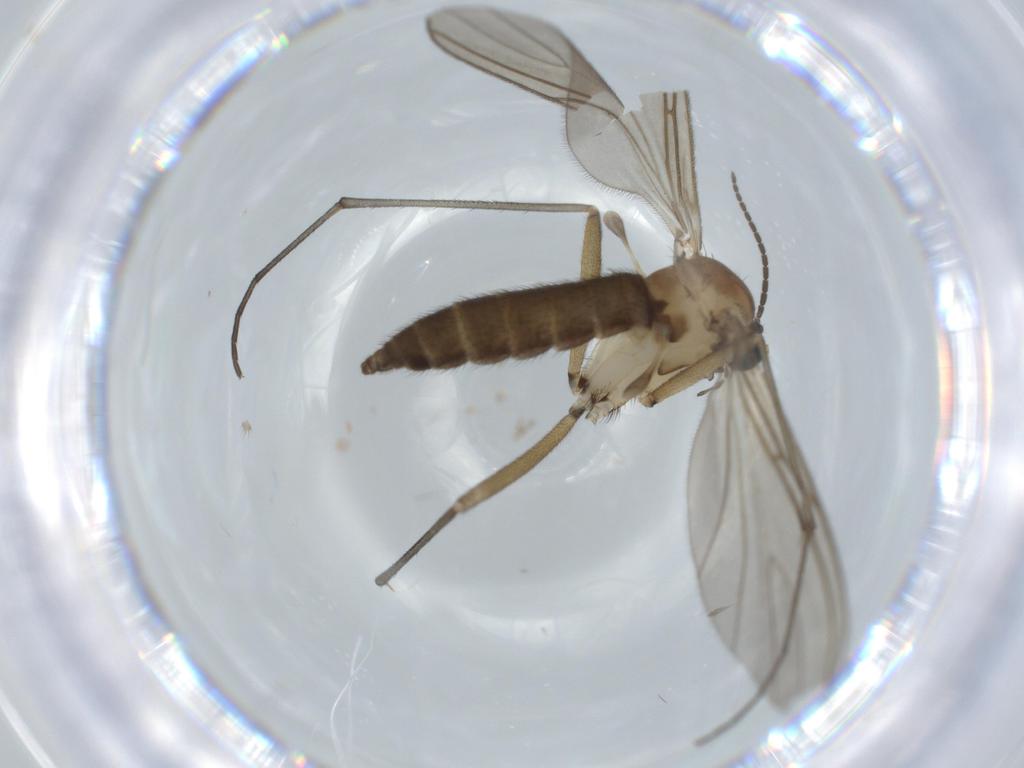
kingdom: Animalia
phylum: Arthropoda
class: Insecta
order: Diptera
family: Sciaridae
